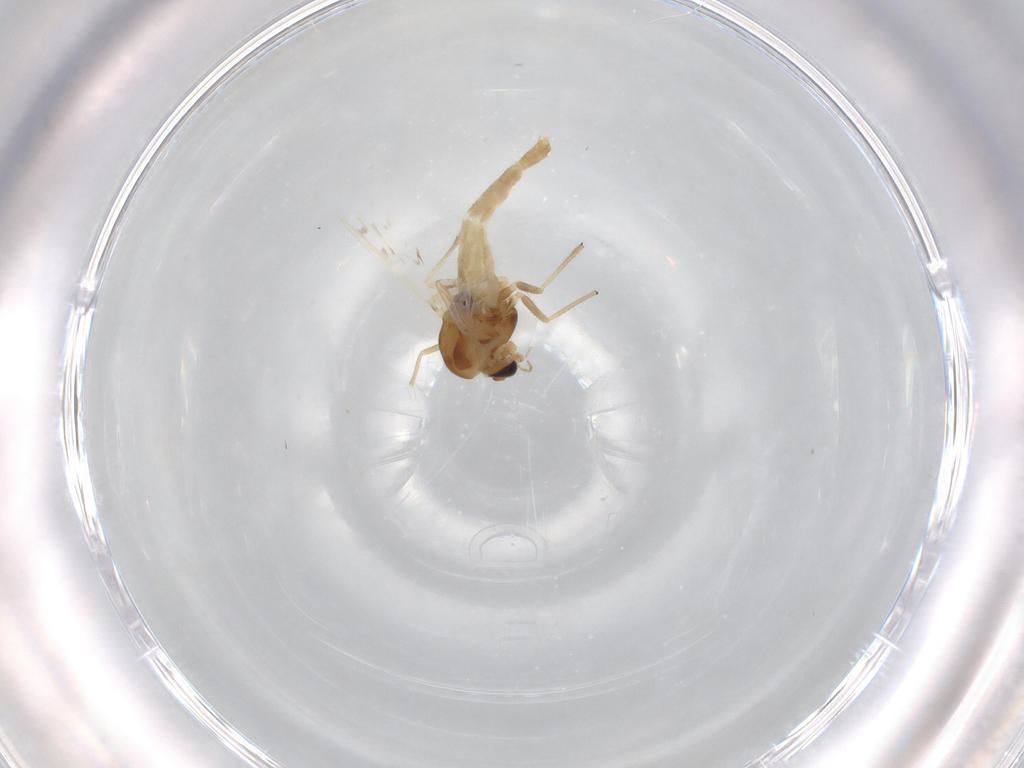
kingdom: Animalia
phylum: Arthropoda
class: Insecta
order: Diptera
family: Chironomidae
